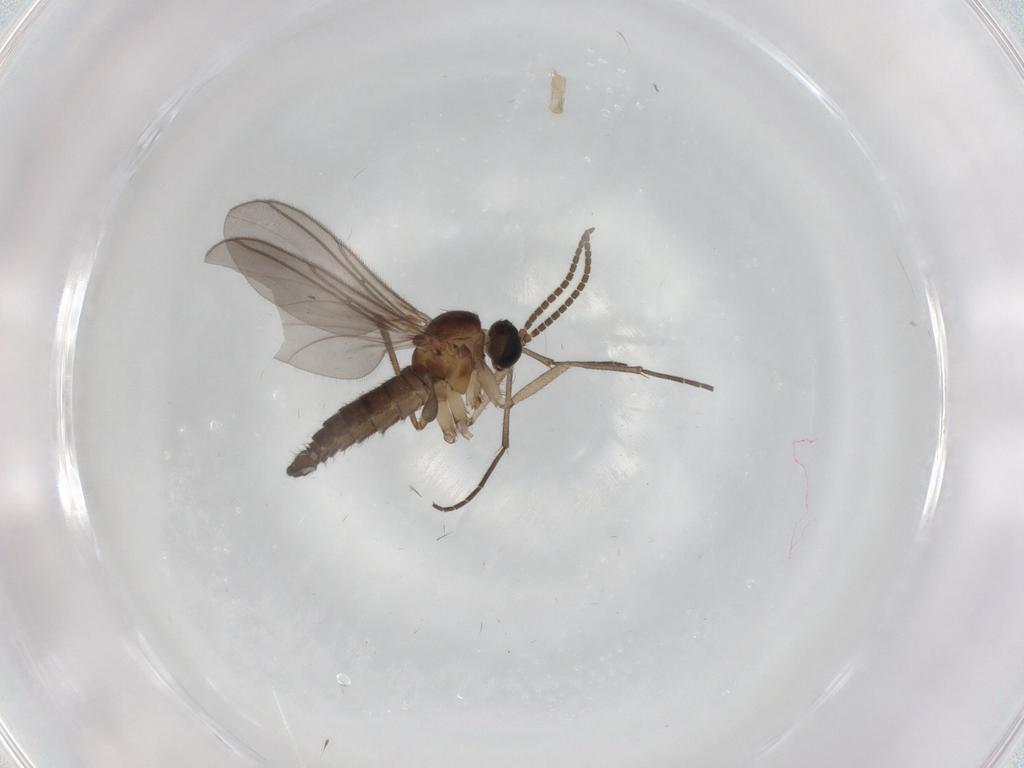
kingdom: Animalia
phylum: Arthropoda
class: Insecta
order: Diptera
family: Chironomidae
